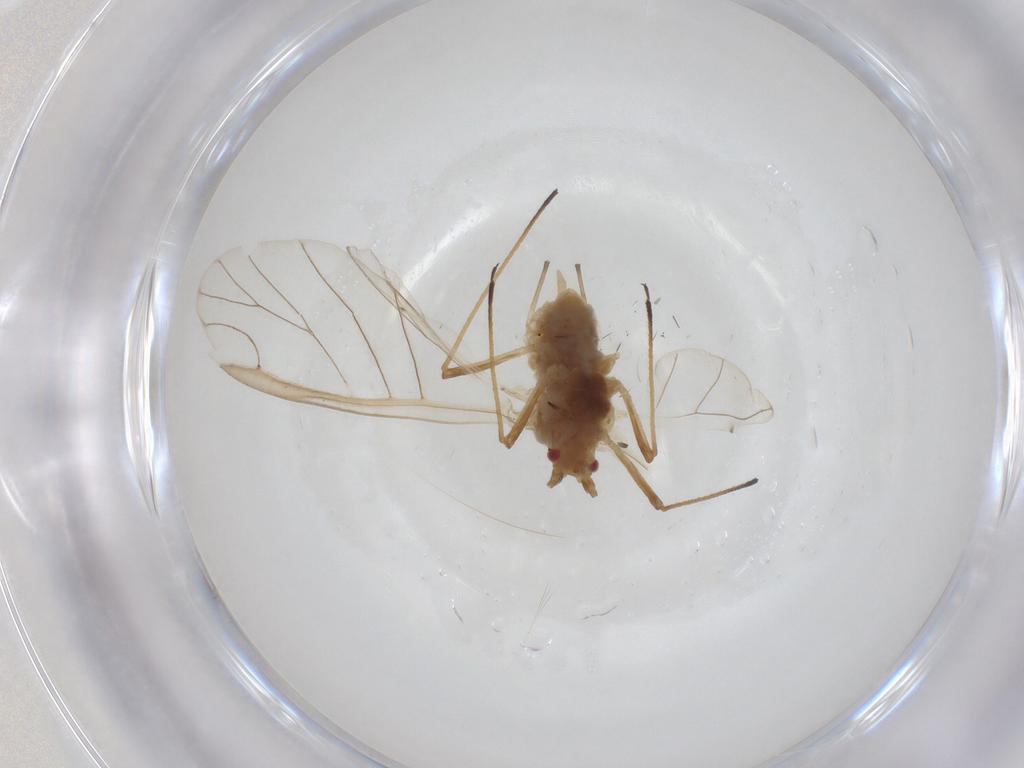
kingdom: Animalia
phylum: Arthropoda
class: Insecta
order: Hemiptera
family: Aphididae
